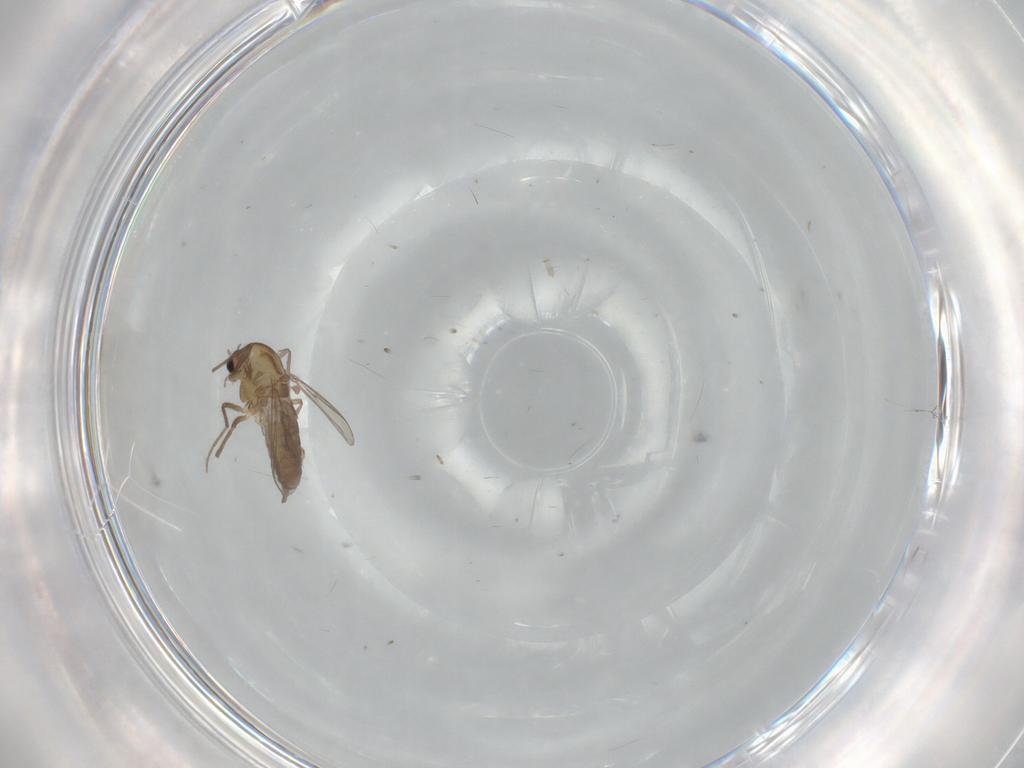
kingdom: Animalia
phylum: Arthropoda
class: Insecta
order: Diptera
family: Chironomidae
